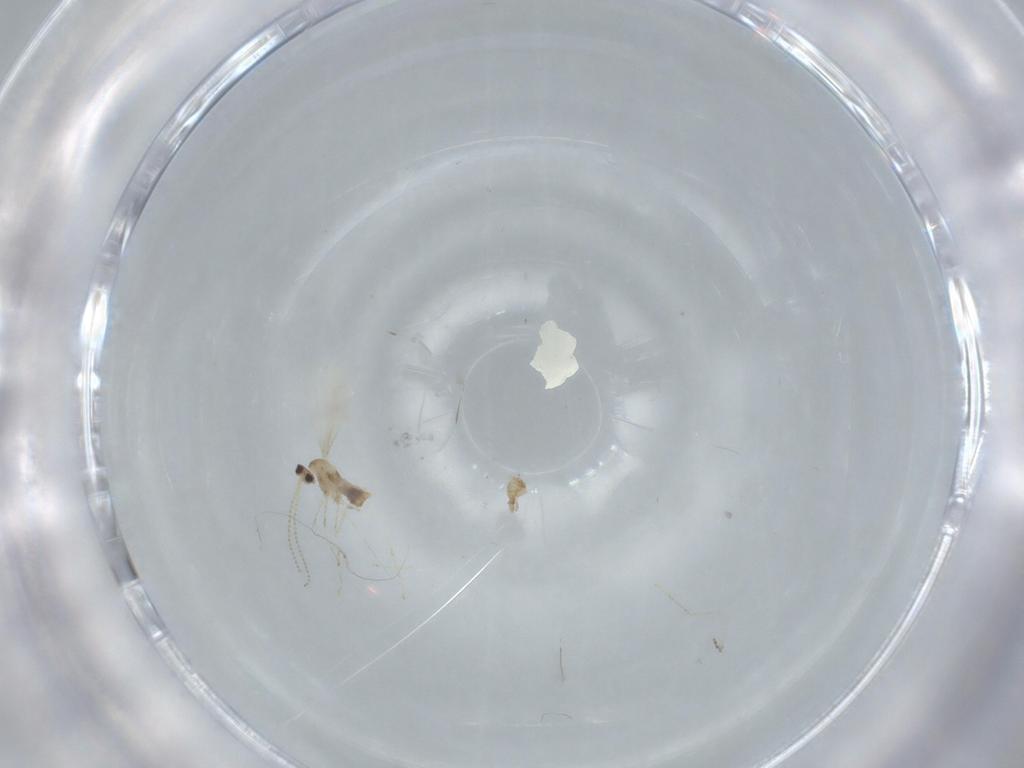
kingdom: Animalia
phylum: Arthropoda
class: Insecta
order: Diptera
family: Cecidomyiidae
